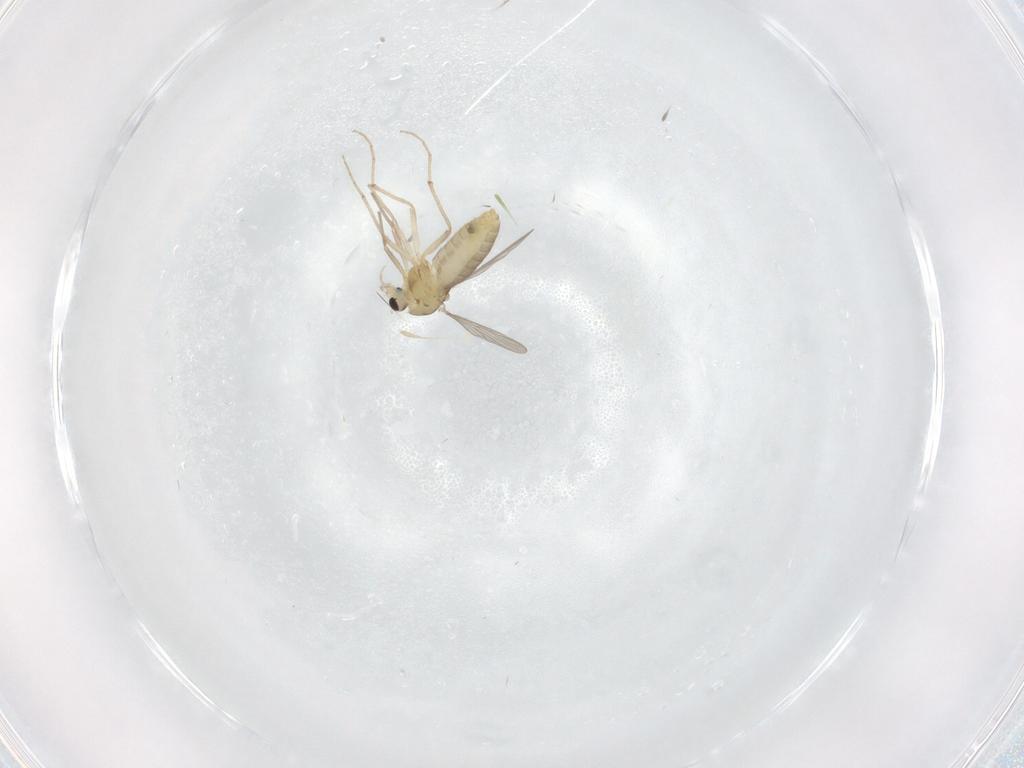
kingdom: Animalia
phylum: Arthropoda
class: Insecta
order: Diptera
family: Chironomidae
